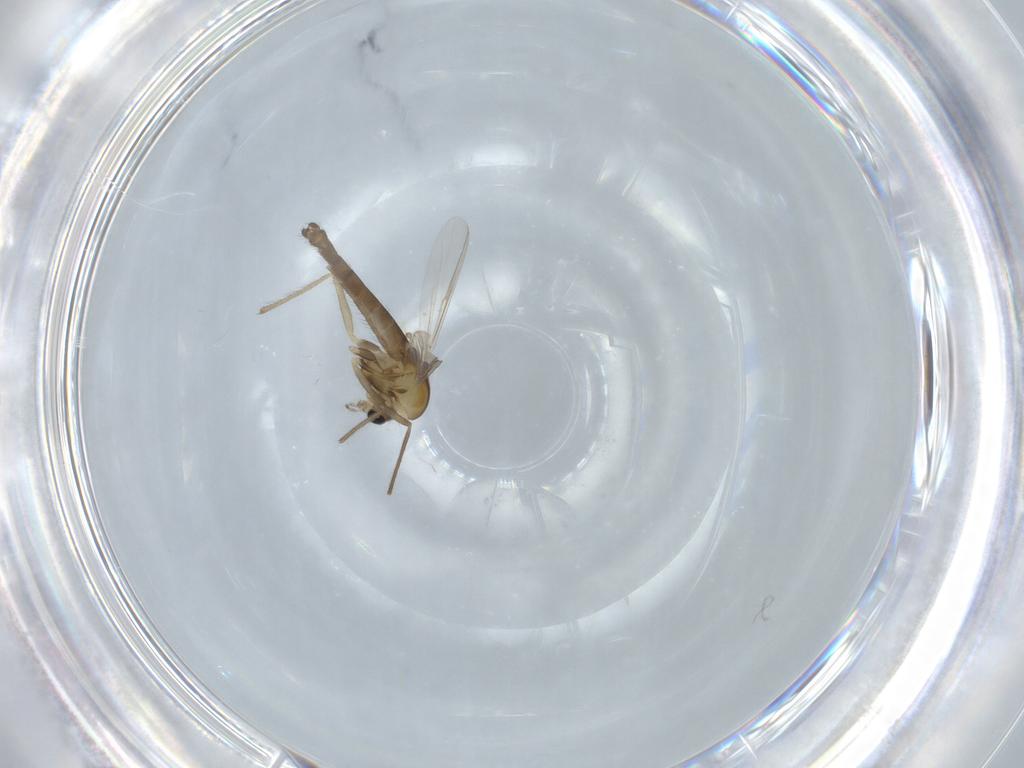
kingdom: Animalia
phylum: Arthropoda
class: Insecta
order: Diptera
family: Chironomidae
